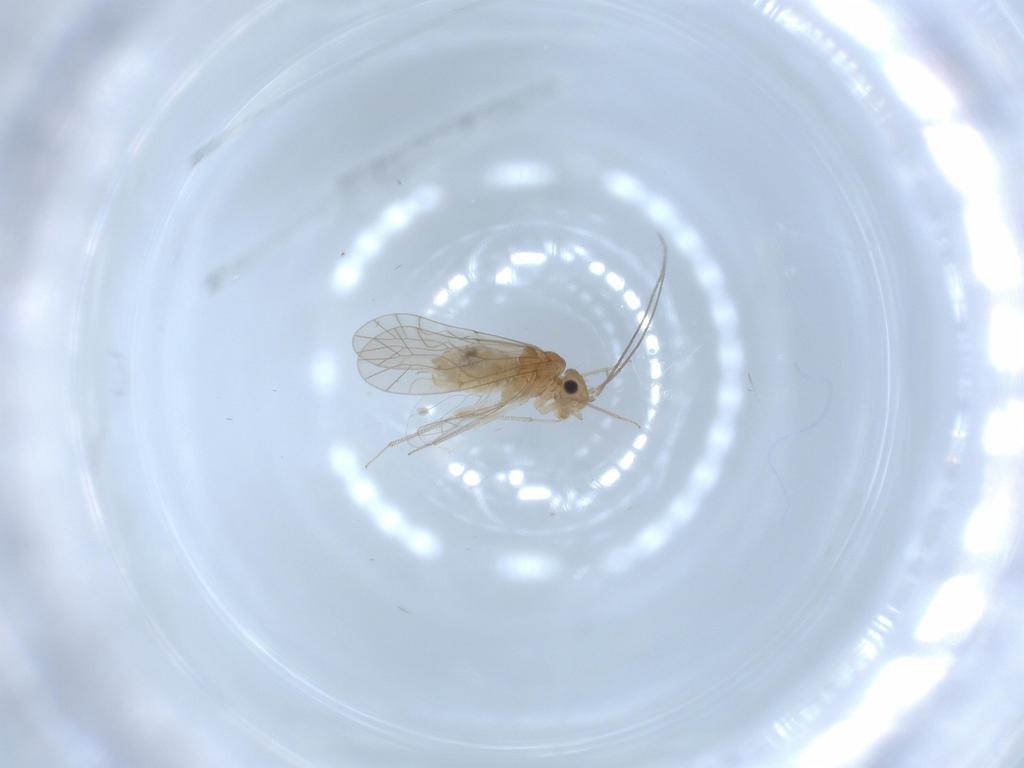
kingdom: Animalia
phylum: Arthropoda
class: Insecta
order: Psocodea
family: Lachesillidae
